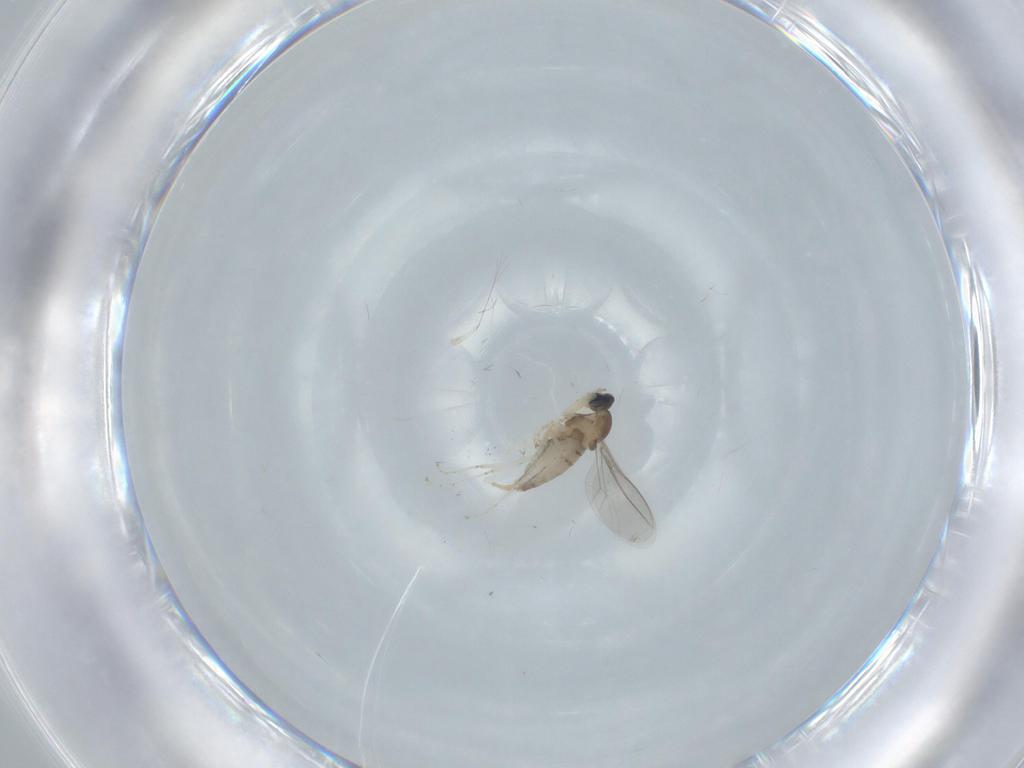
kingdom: Animalia
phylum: Arthropoda
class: Insecta
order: Diptera
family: Cecidomyiidae
